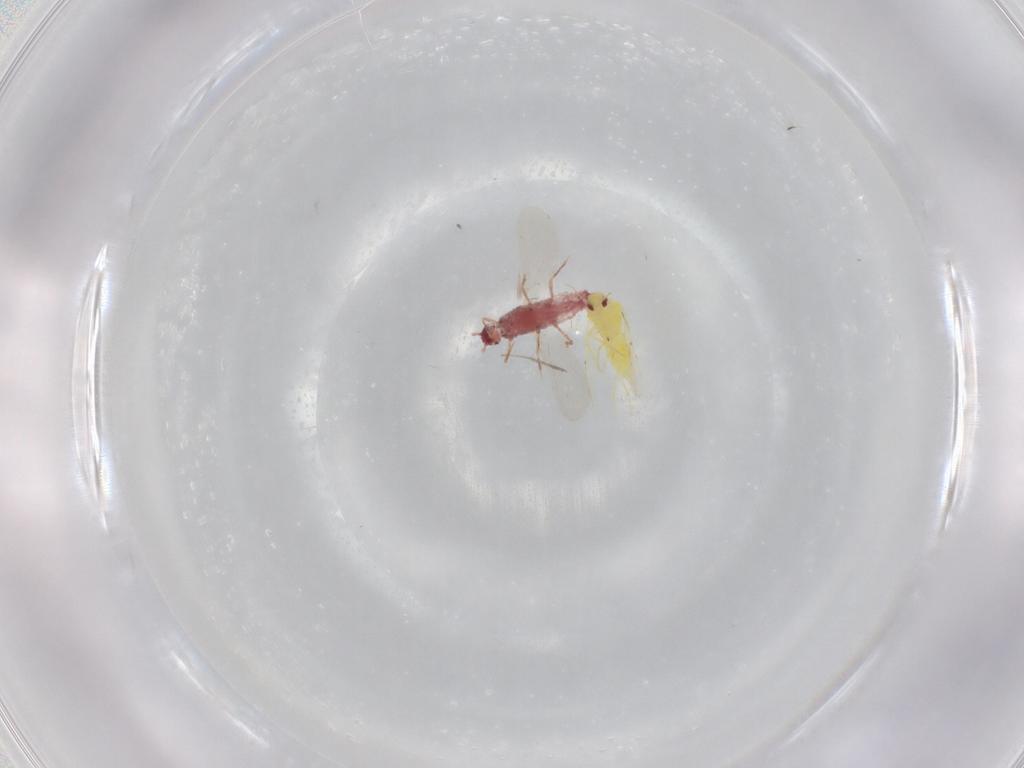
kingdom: Animalia
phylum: Arthropoda
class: Insecta
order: Hemiptera
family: Aleyrodidae
